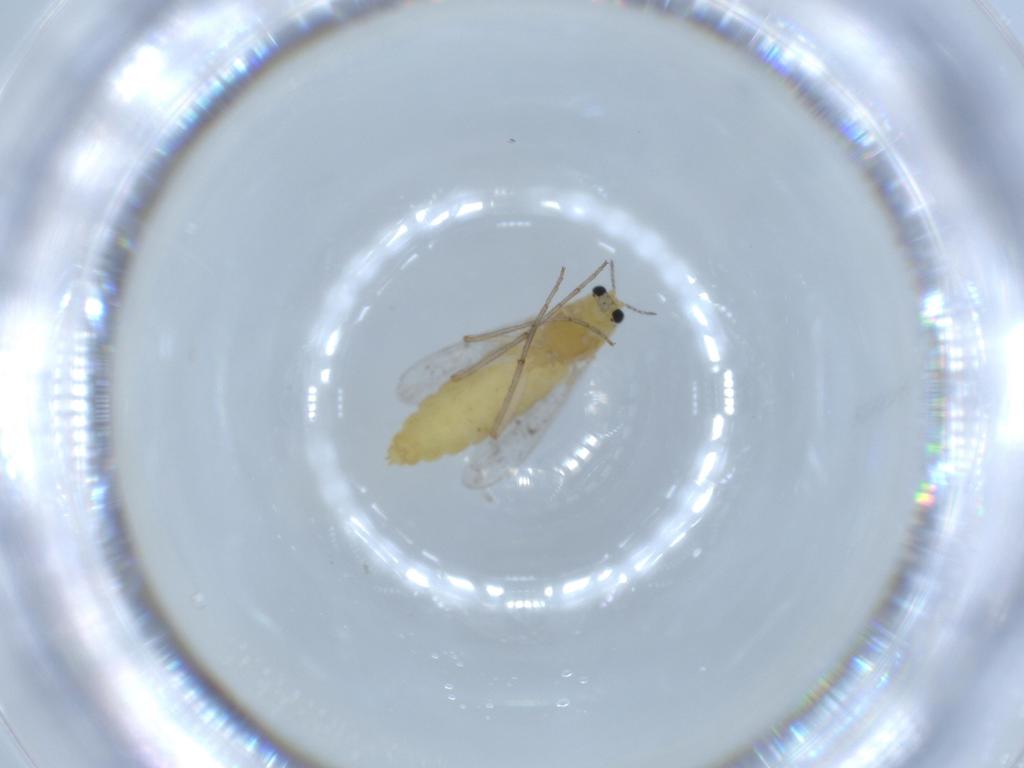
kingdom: Animalia
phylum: Arthropoda
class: Insecta
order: Diptera
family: Chironomidae
